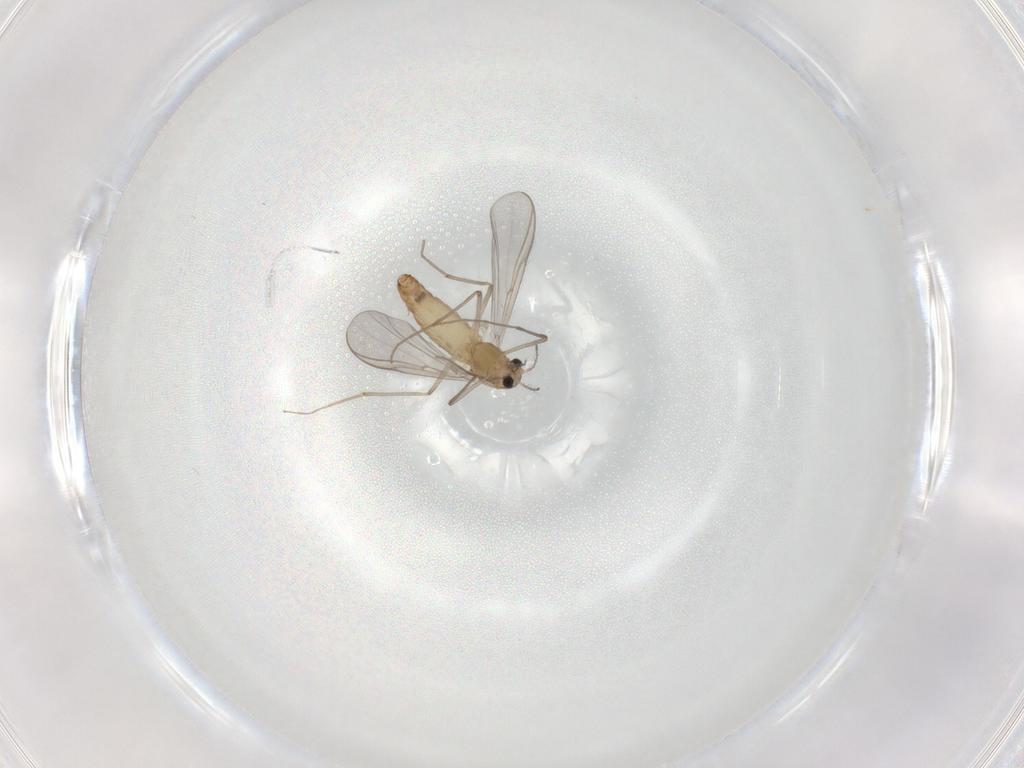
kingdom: Animalia
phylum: Arthropoda
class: Insecta
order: Diptera
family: Chironomidae
